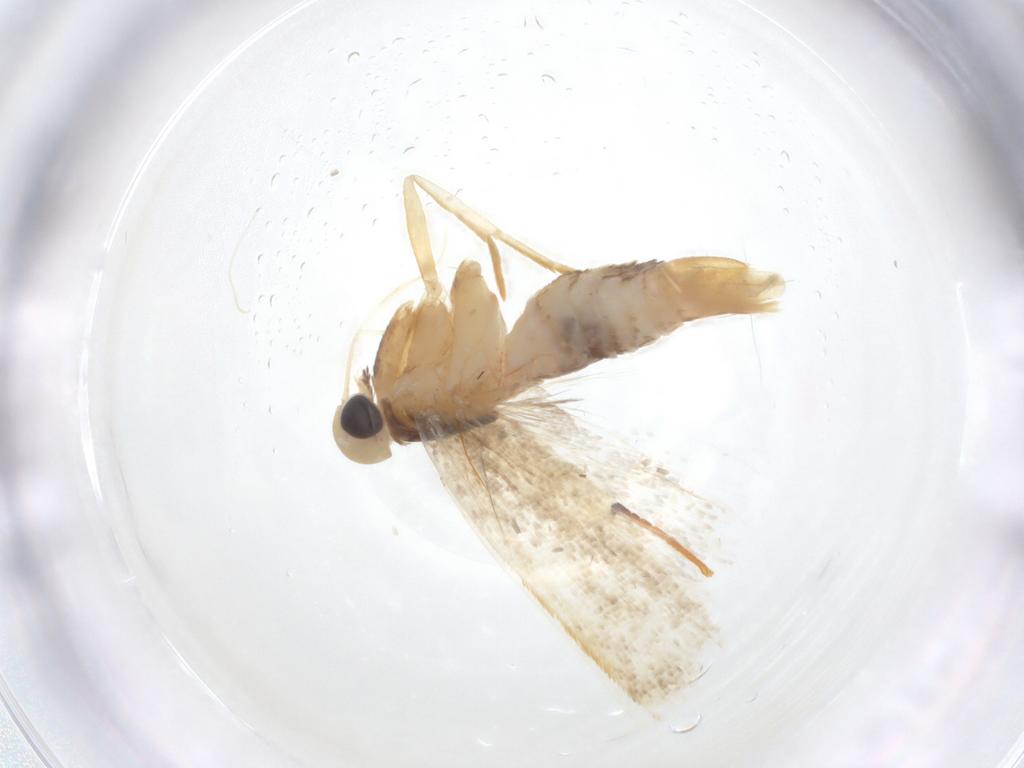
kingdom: Animalia
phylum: Arthropoda
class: Insecta
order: Lepidoptera
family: Gelechiidae
